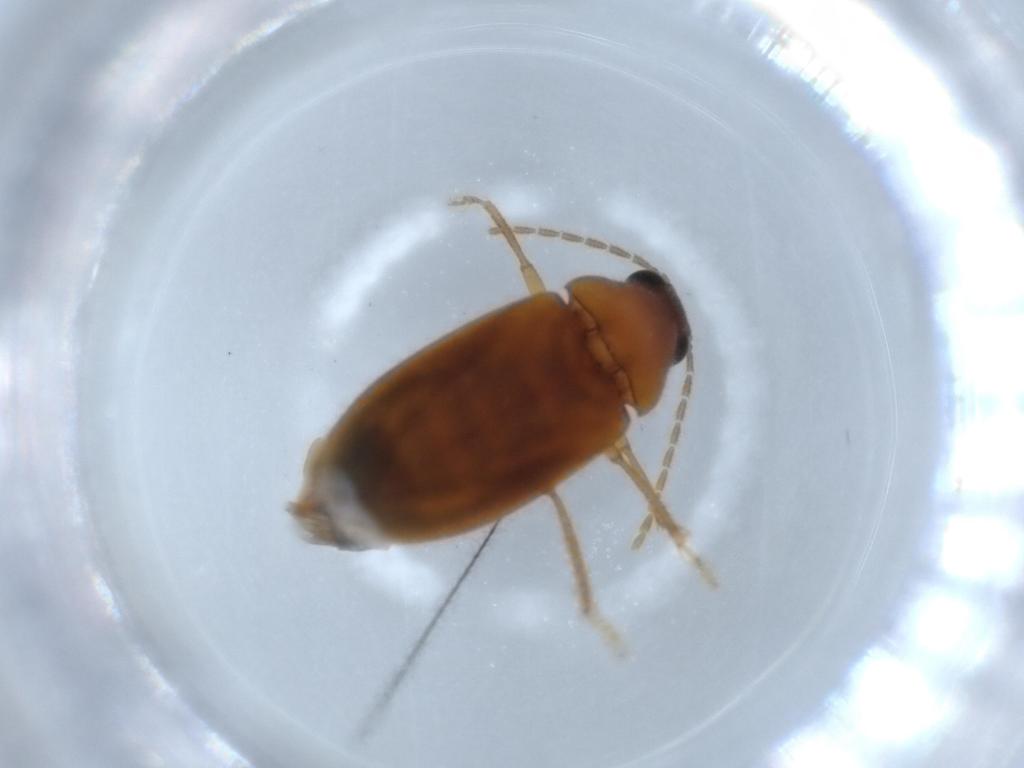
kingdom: Animalia
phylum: Arthropoda
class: Insecta
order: Coleoptera
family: Ptilodactylidae
